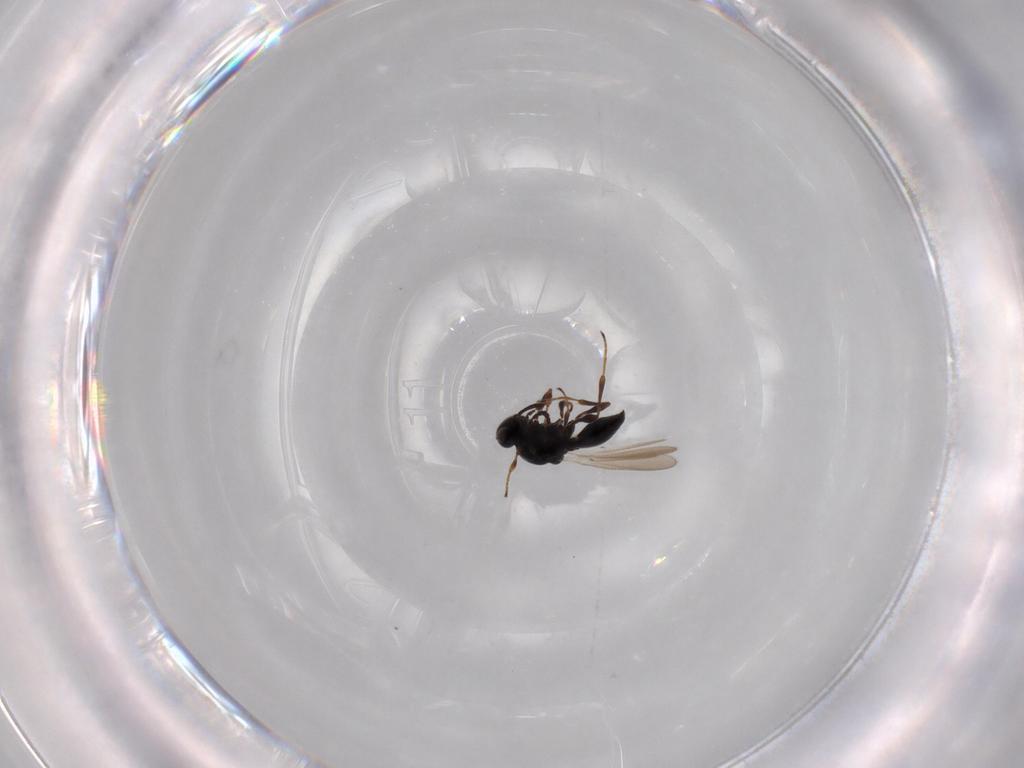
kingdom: Animalia
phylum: Arthropoda
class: Insecta
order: Hymenoptera
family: Platygastridae
